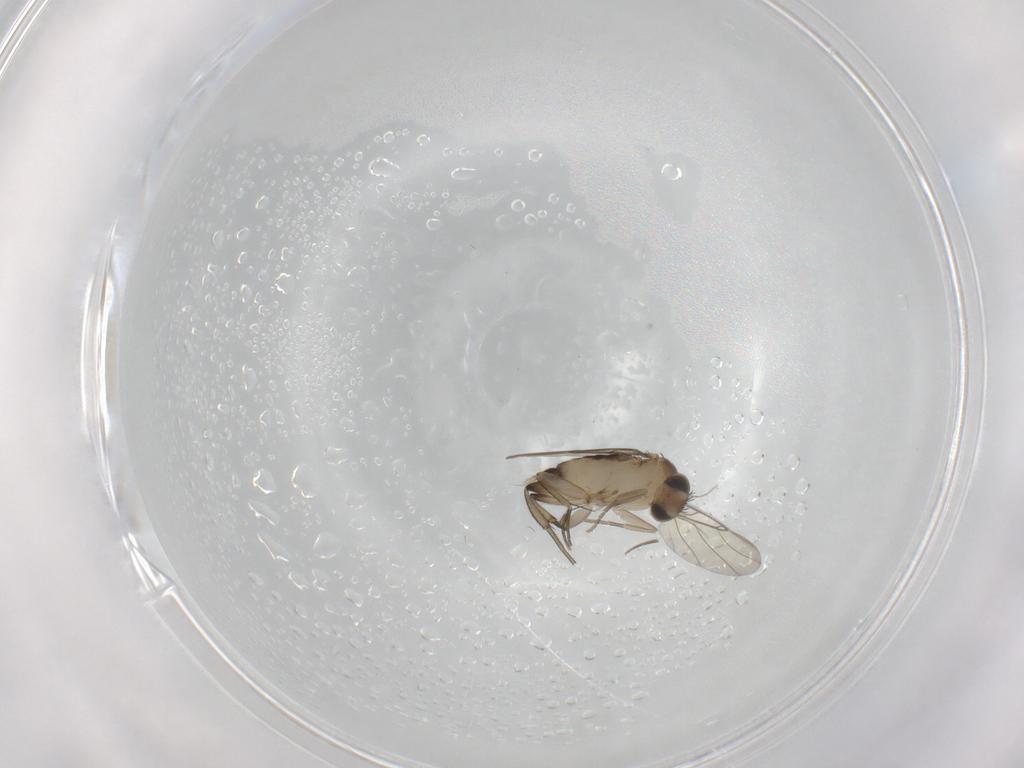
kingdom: Animalia
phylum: Arthropoda
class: Insecta
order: Diptera
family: Phoridae
